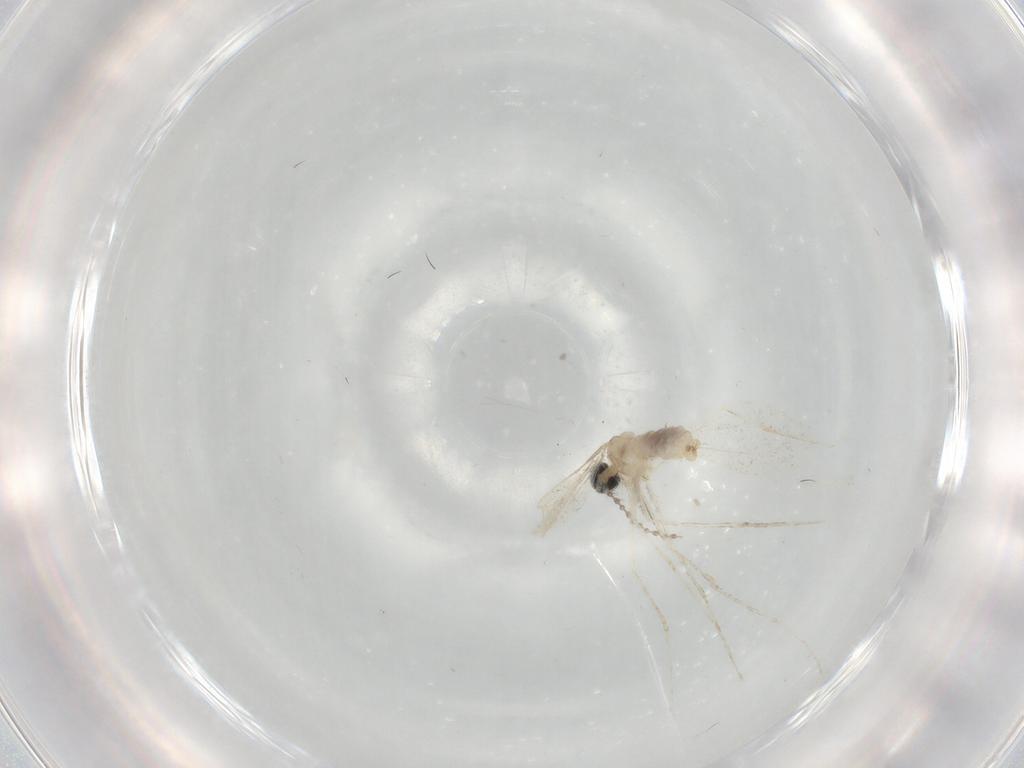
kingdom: Animalia
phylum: Arthropoda
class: Insecta
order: Diptera
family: Cecidomyiidae
